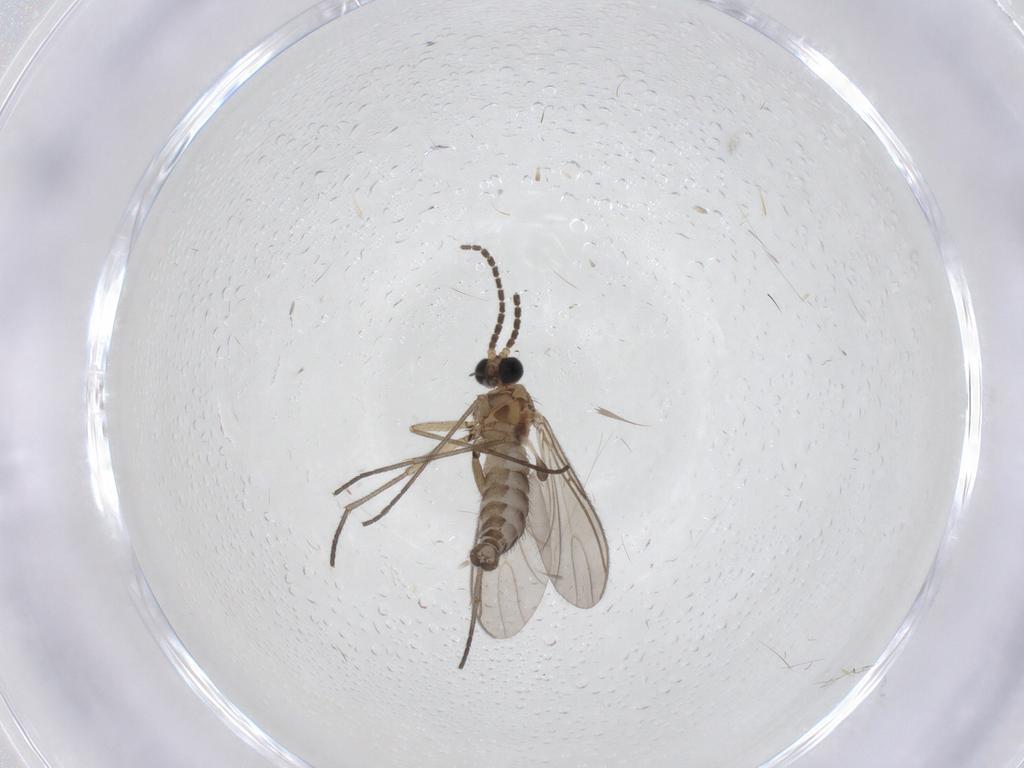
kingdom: Animalia
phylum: Arthropoda
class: Insecta
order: Diptera
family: Sciaridae
